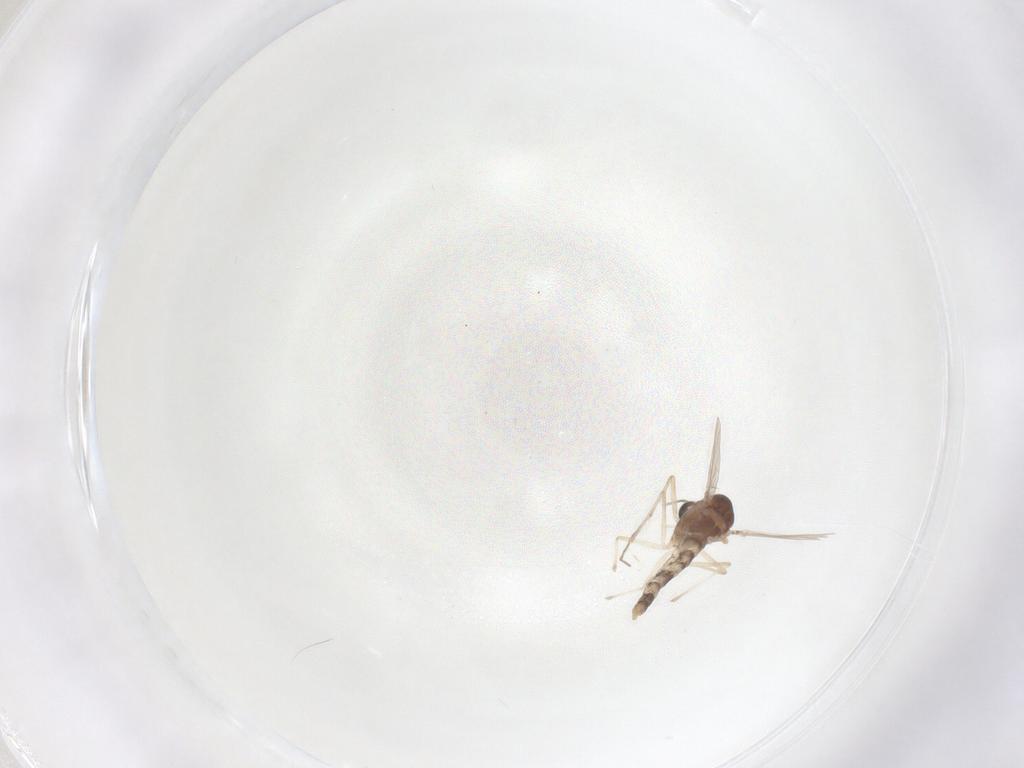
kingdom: Animalia
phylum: Arthropoda
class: Insecta
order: Diptera
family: Chironomidae
